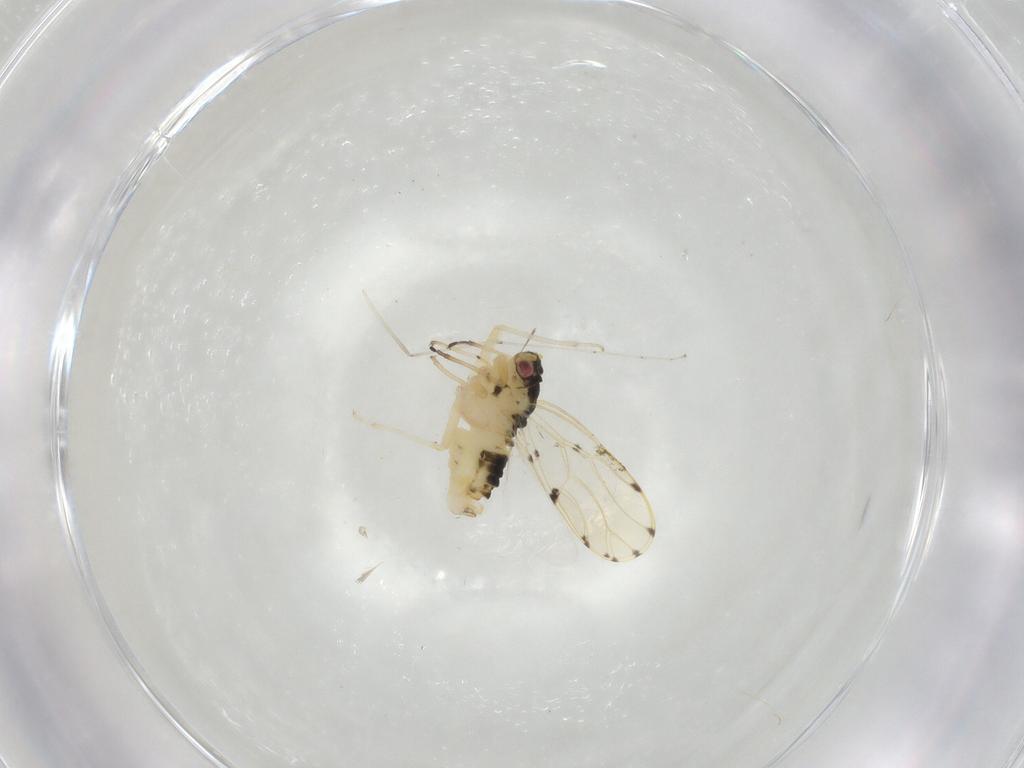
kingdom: Animalia
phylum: Arthropoda
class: Insecta
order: Hemiptera
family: Psylloidea_incertae_sedis
